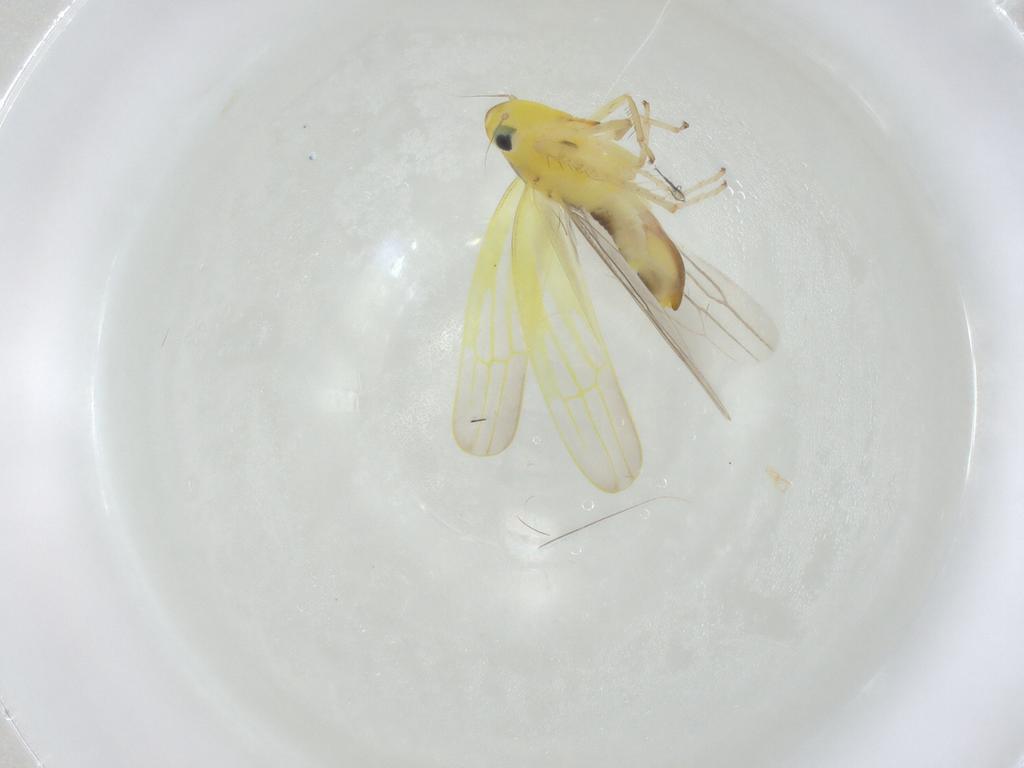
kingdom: Animalia
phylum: Arthropoda
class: Insecta
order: Hemiptera
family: Cicadellidae
